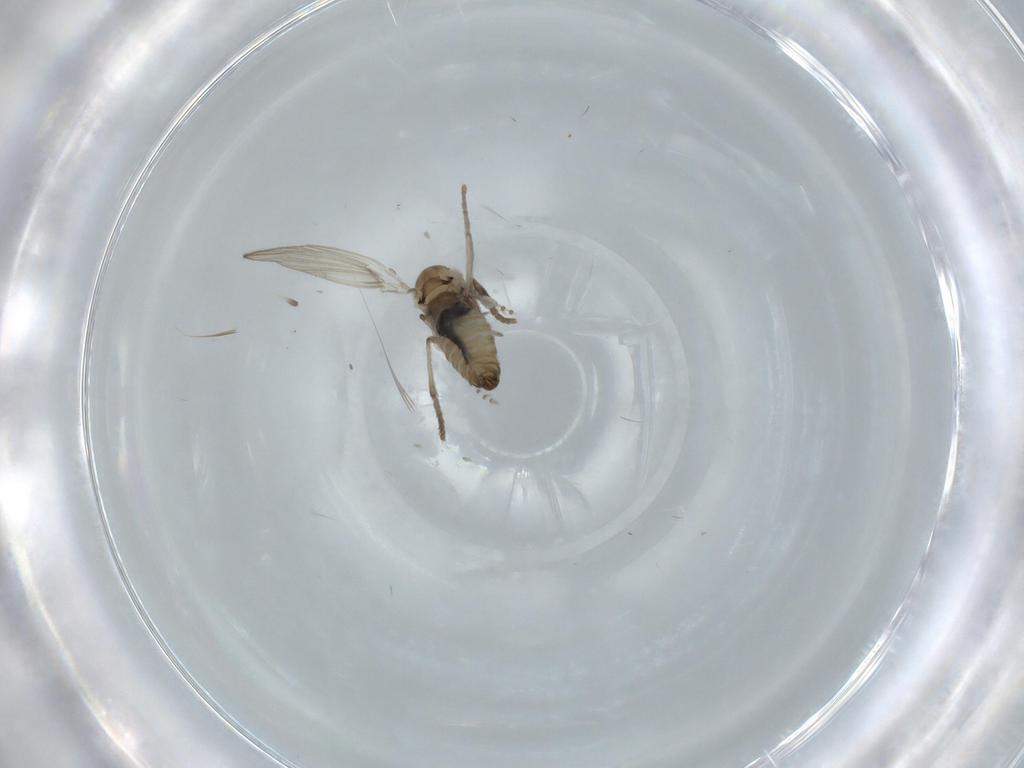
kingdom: Animalia
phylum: Arthropoda
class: Insecta
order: Diptera
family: Psychodidae
